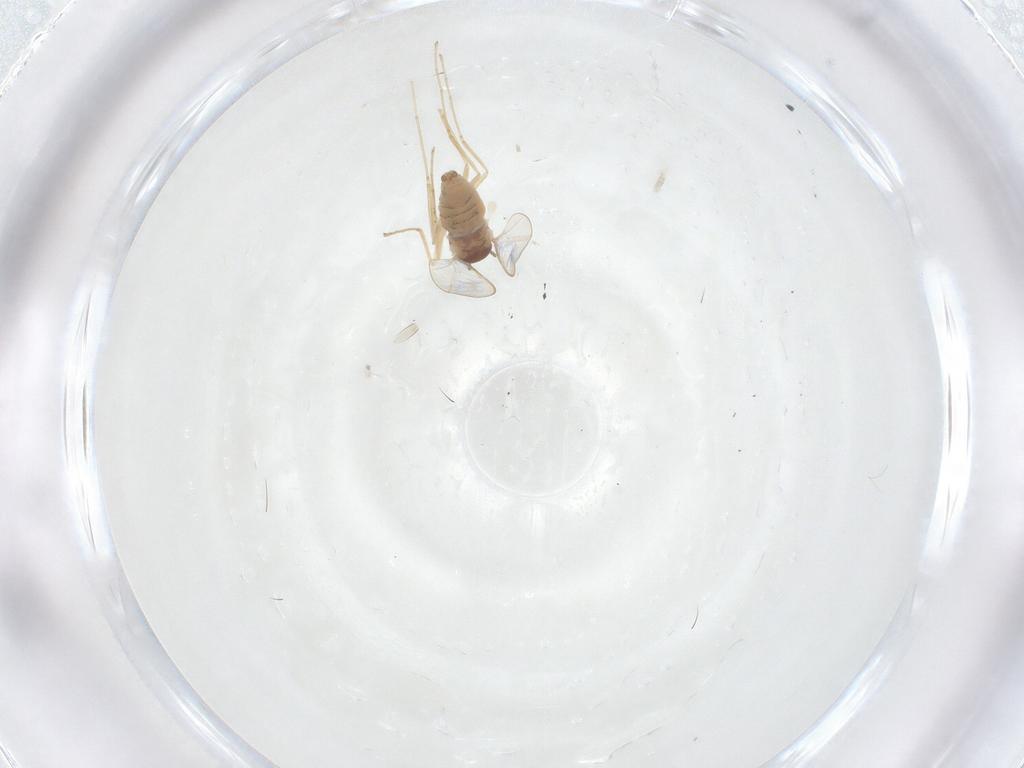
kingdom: Animalia
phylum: Arthropoda
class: Insecta
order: Diptera
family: Cecidomyiidae
